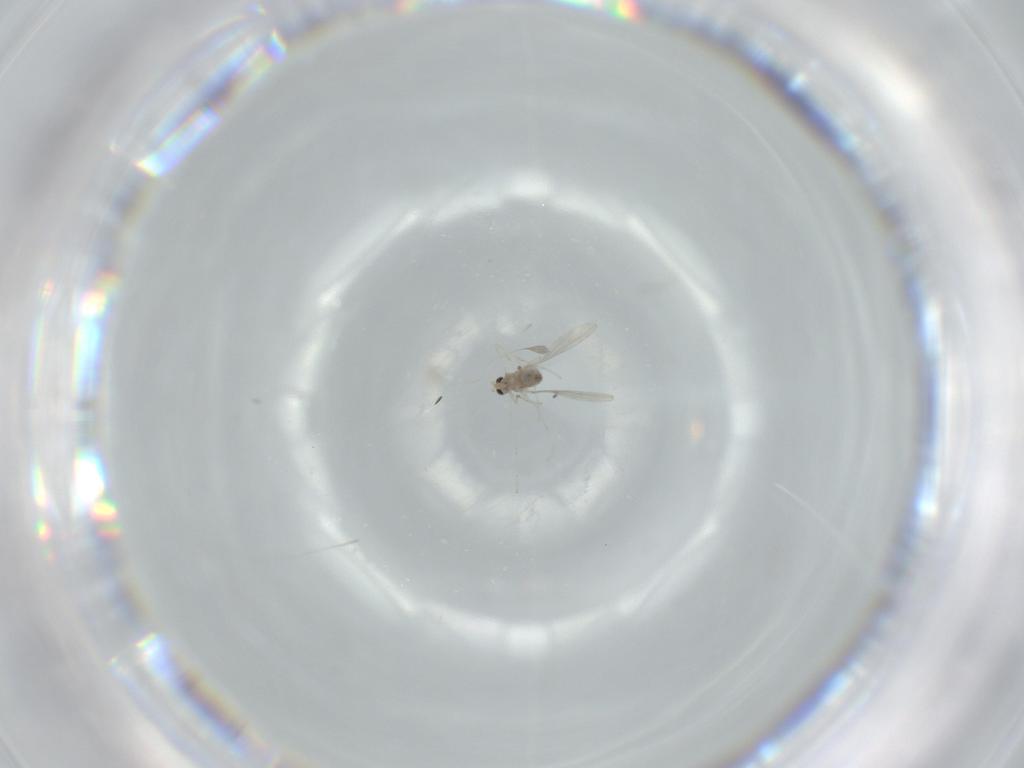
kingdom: Animalia
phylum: Arthropoda
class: Insecta
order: Diptera
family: Cecidomyiidae
